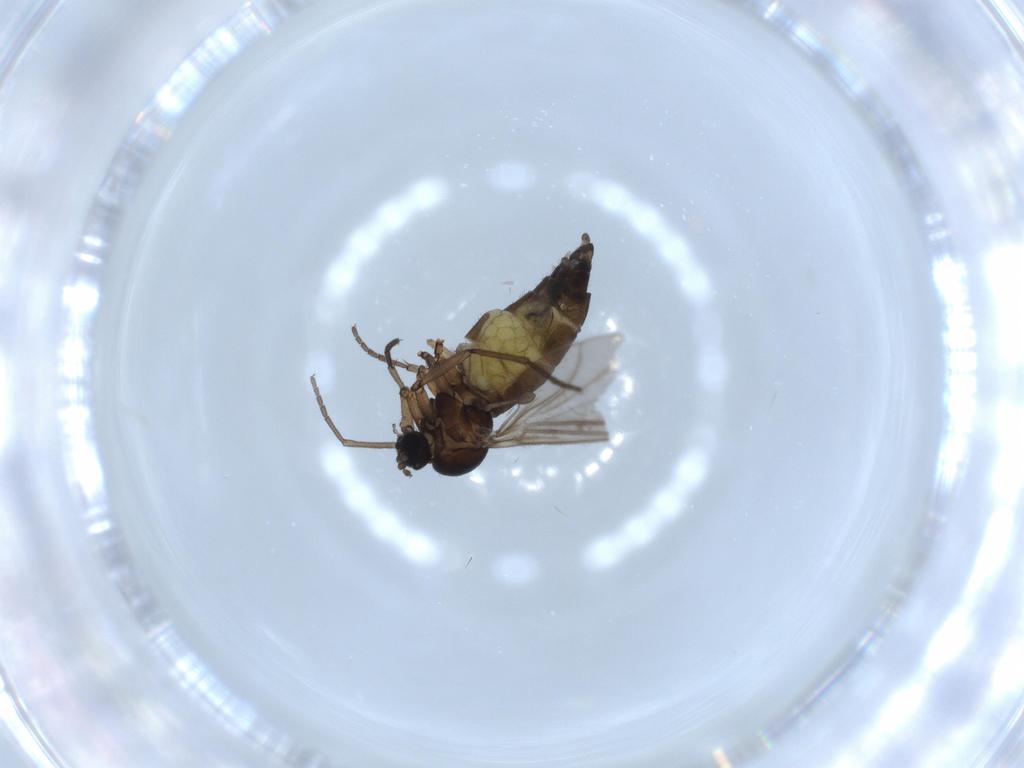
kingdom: Animalia
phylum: Arthropoda
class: Insecta
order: Diptera
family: Sciaridae
